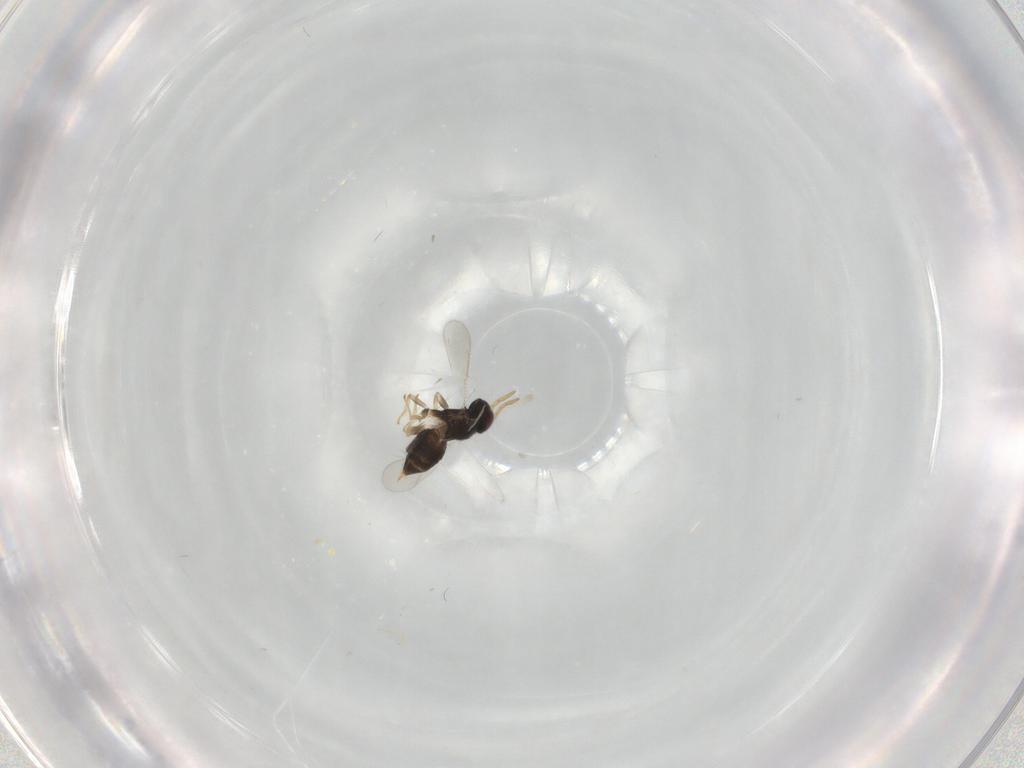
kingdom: Animalia
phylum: Arthropoda
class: Insecta
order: Hymenoptera
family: Aphelinidae
